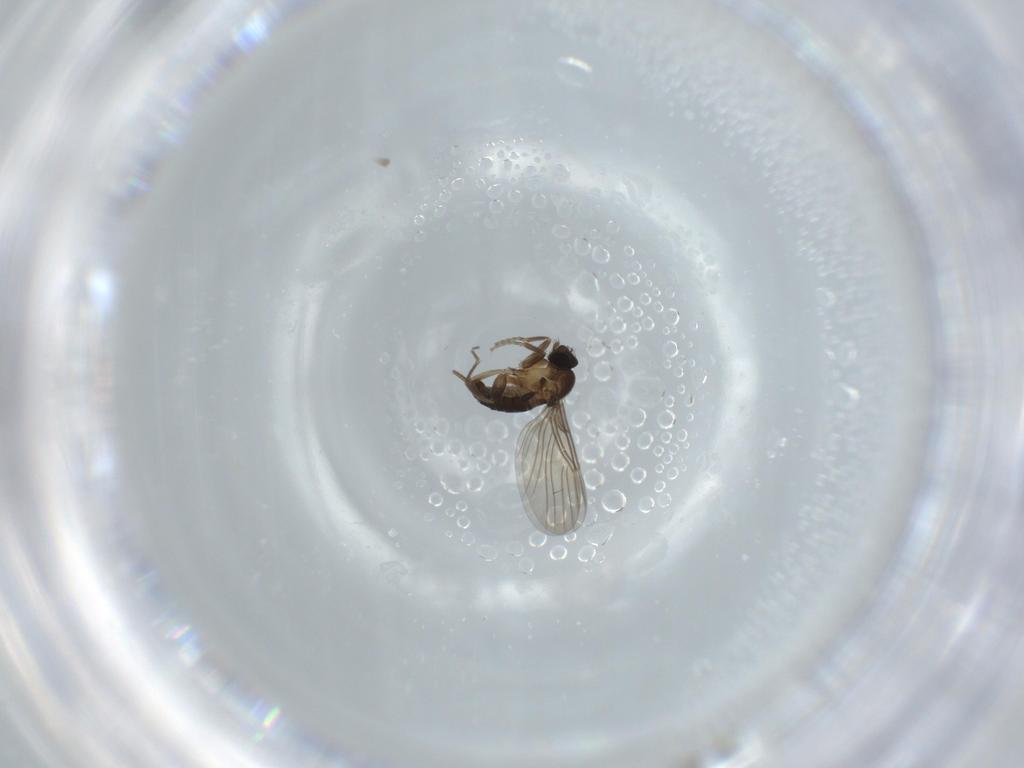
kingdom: Animalia
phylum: Arthropoda
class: Insecta
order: Diptera
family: Phoridae
